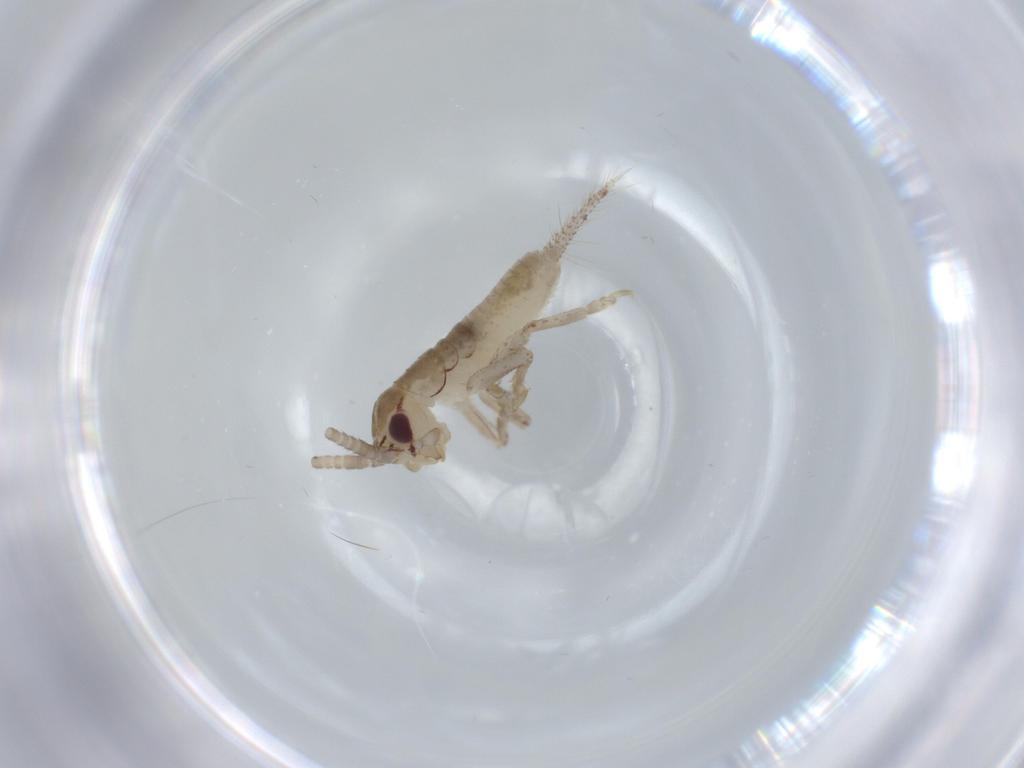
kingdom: Animalia
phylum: Arthropoda
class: Insecta
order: Orthoptera
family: Gryllidae
